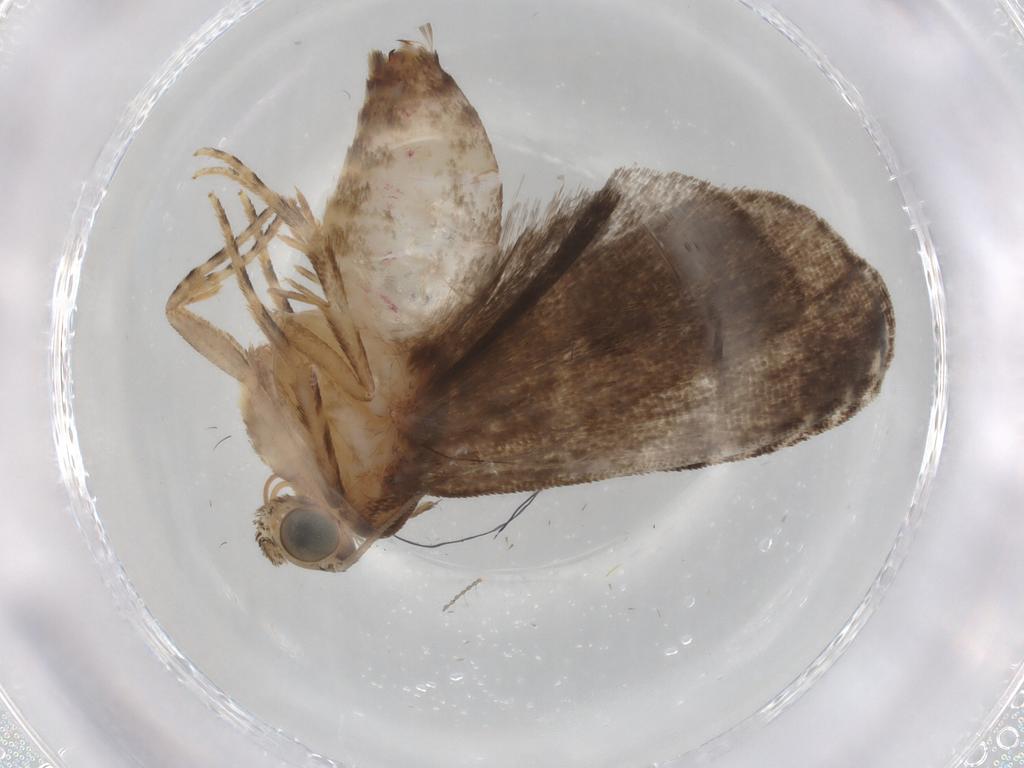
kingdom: Animalia
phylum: Arthropoda
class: Insecta
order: Lepidoptera
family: Immidae
